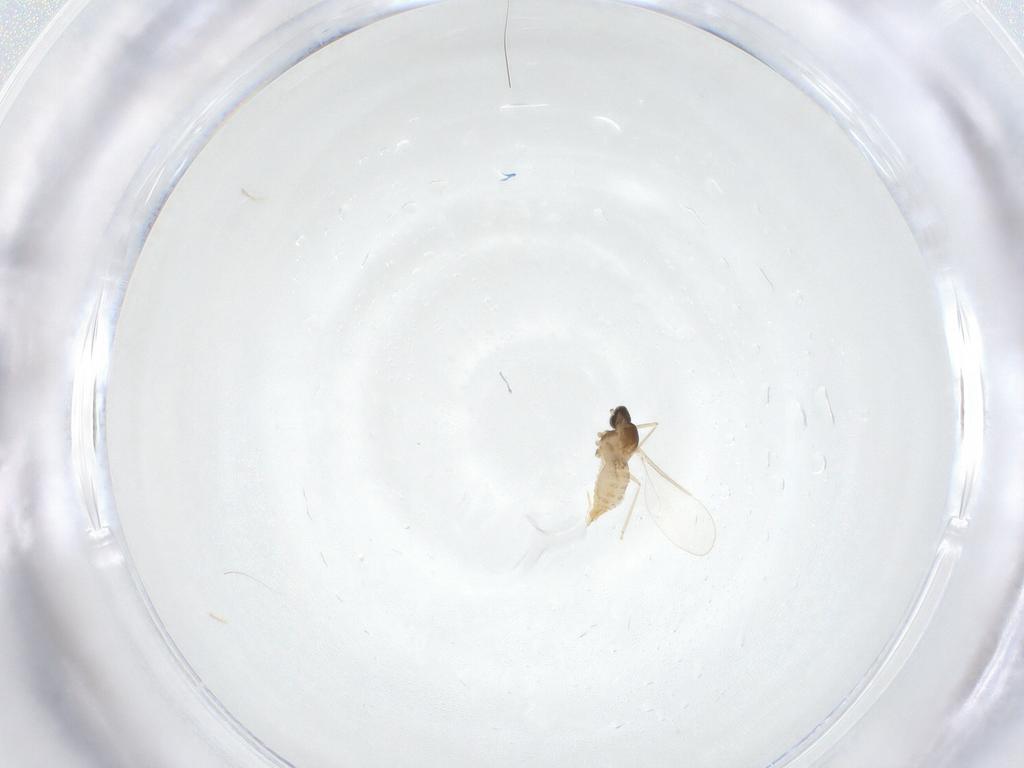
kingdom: Animalia
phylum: Arthropoda
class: Insecta
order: Diptera
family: Cecidomyiidae
